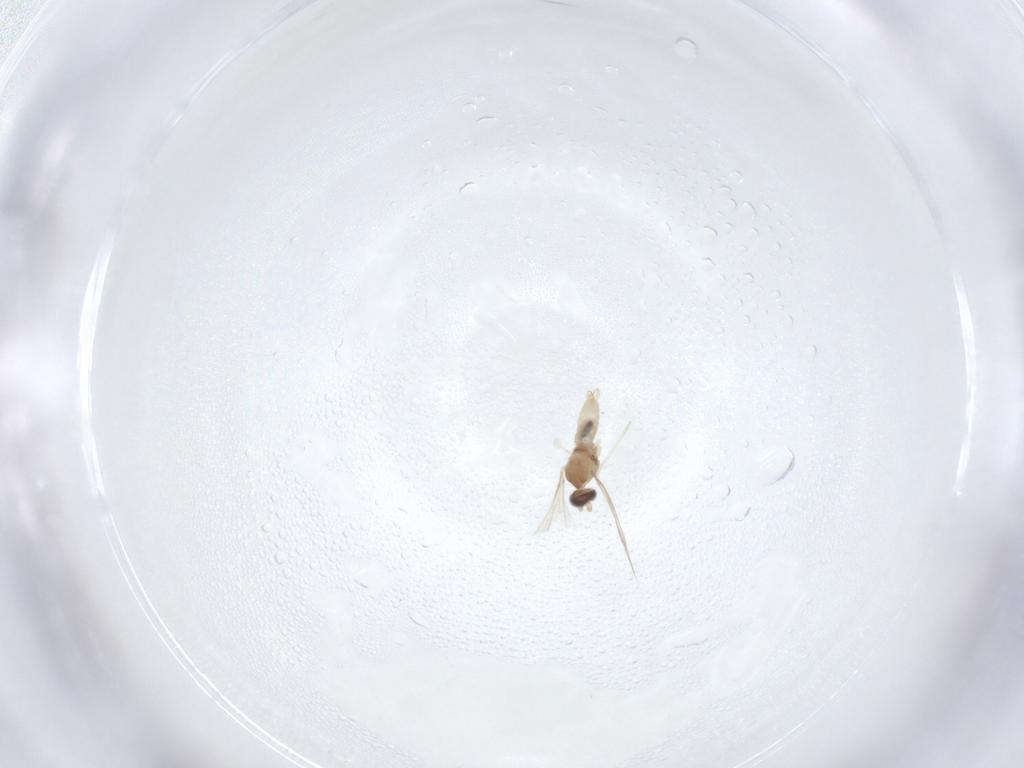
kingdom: Animalia
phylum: Arthropoda
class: Insecta
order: Diptera
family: Cecidomyiidae
